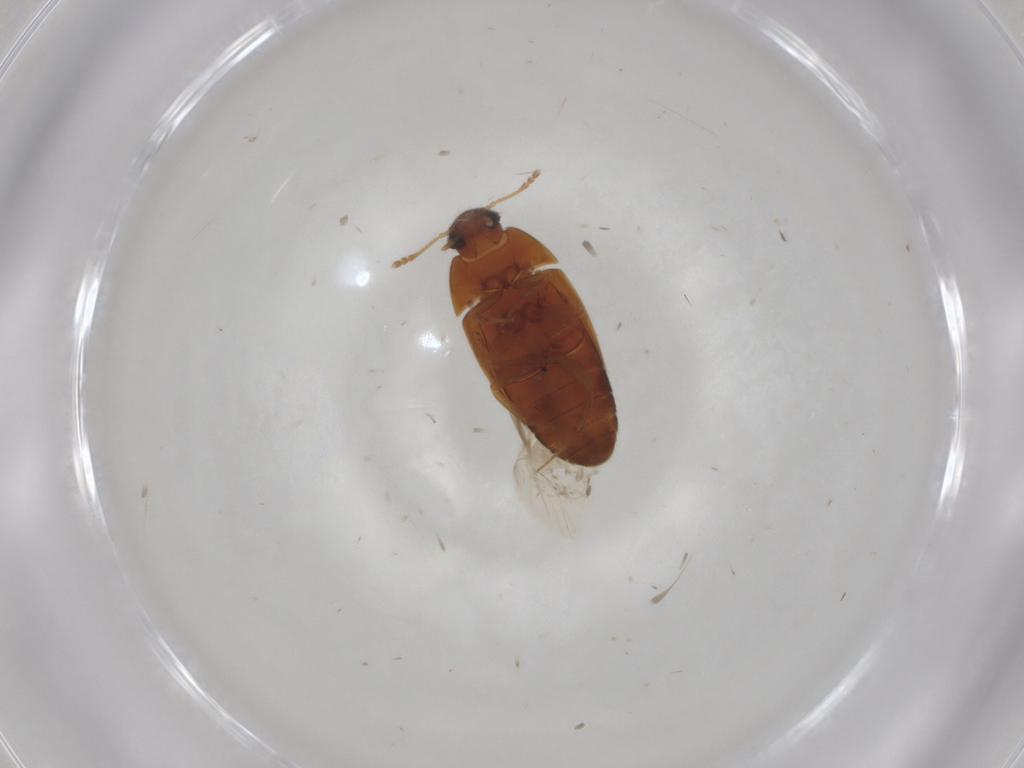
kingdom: Animalia
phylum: Arthropoda
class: Insecta
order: Coleoptera
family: Mycetophagidae
